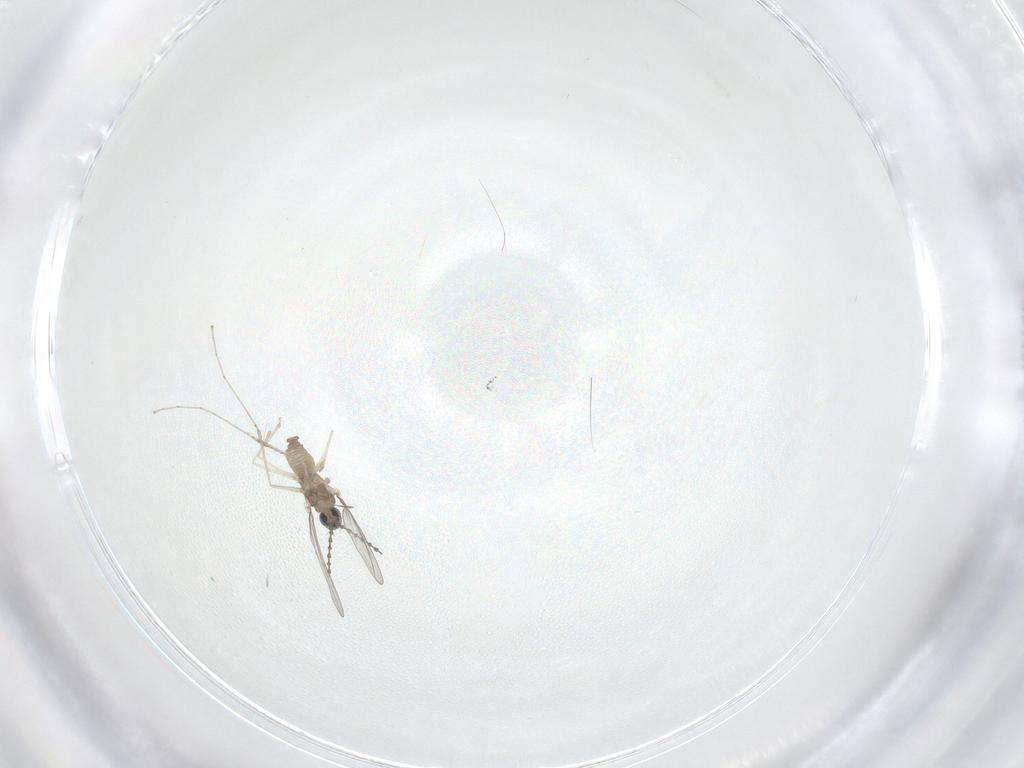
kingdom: Animalia
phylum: Arthropoda
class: Insecta
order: Diptera
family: Cecidomyiidae
